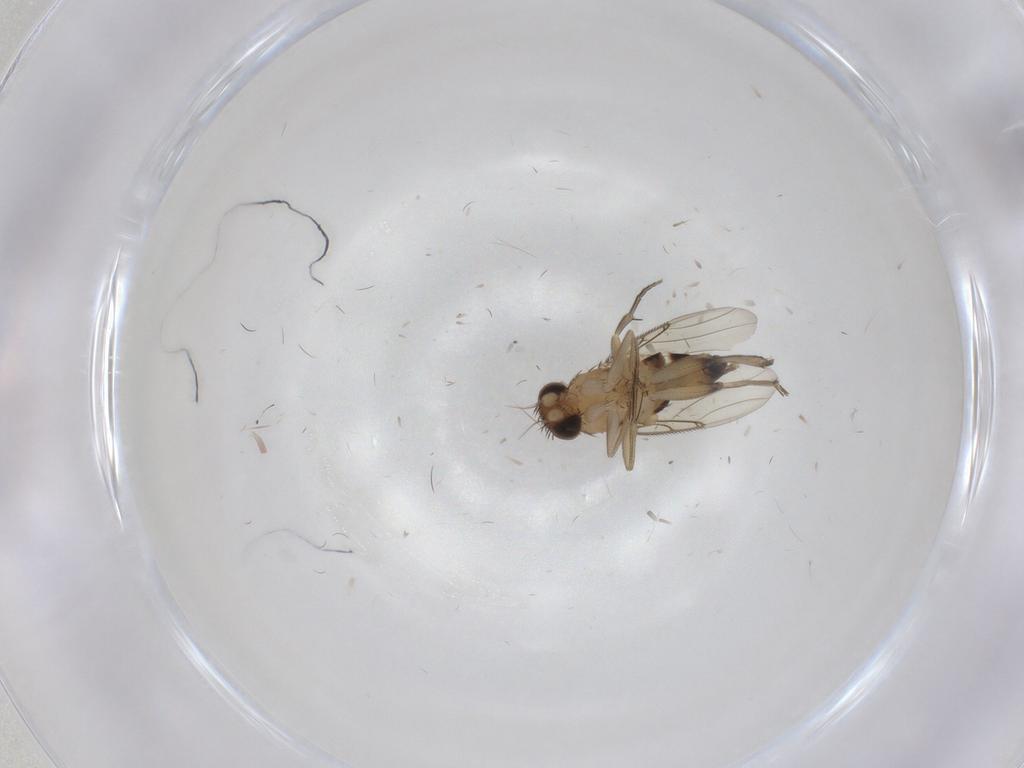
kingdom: Animalia
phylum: Arthropoda
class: Insecta
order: Diptera
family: Phoridae
